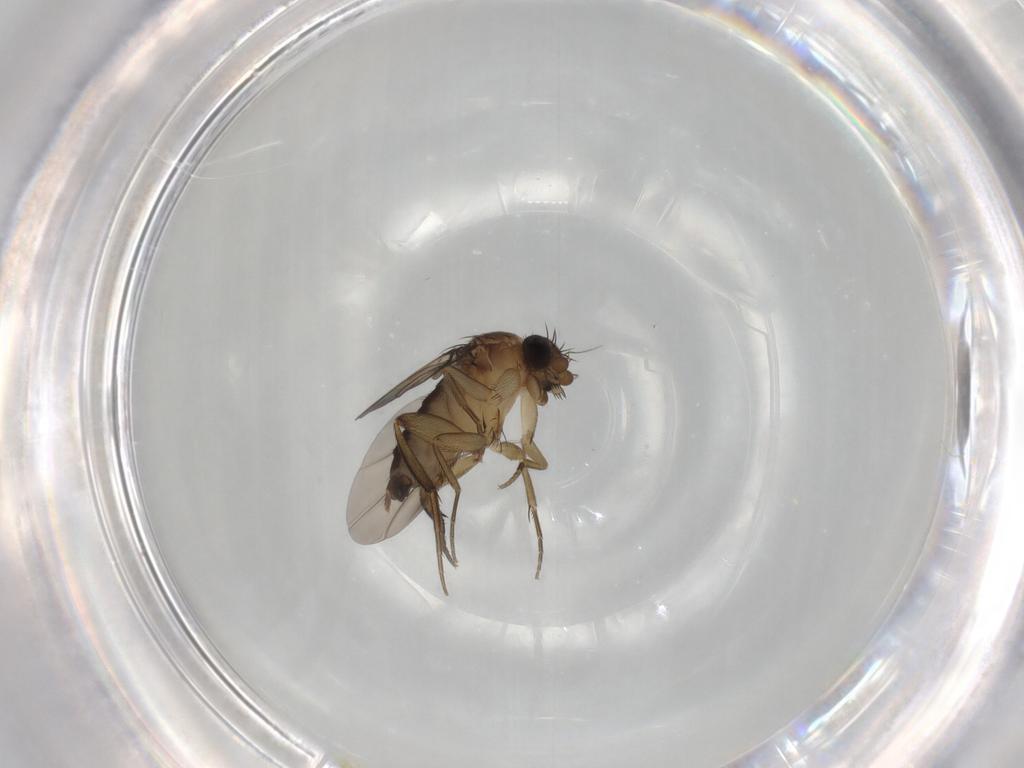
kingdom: Animalia
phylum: Arthropoda
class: Insecta
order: Diptera
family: Phoridae
